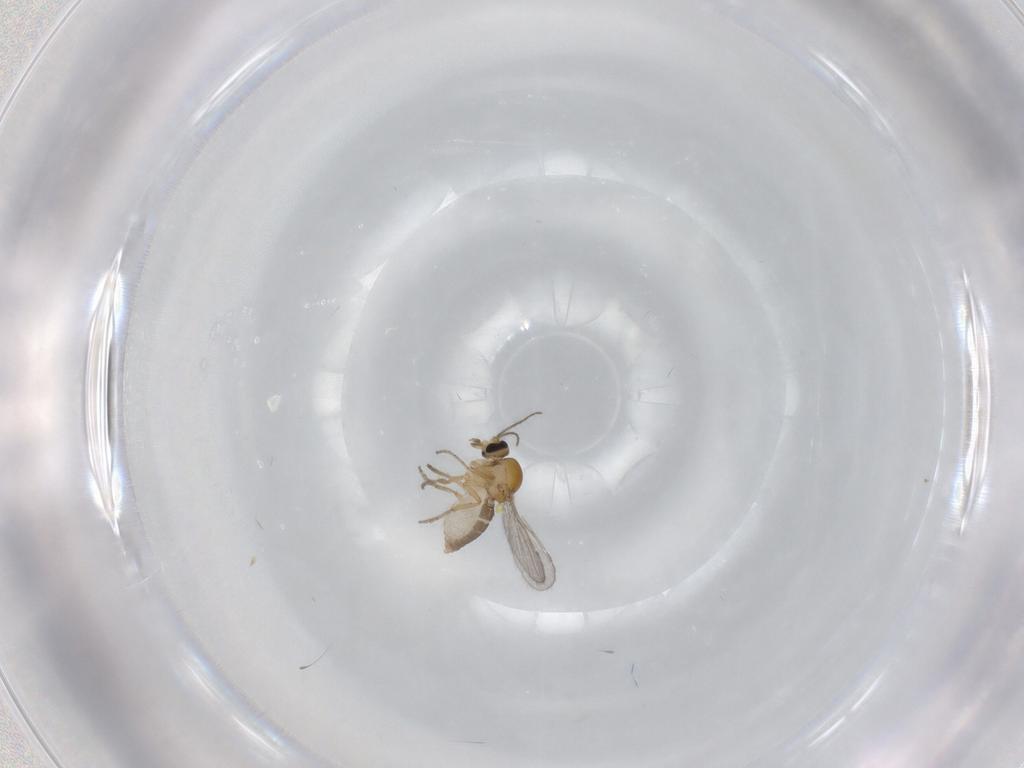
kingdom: Animalia
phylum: Arthropoda
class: Insecta
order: Diptera
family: Ceratopogonidae
